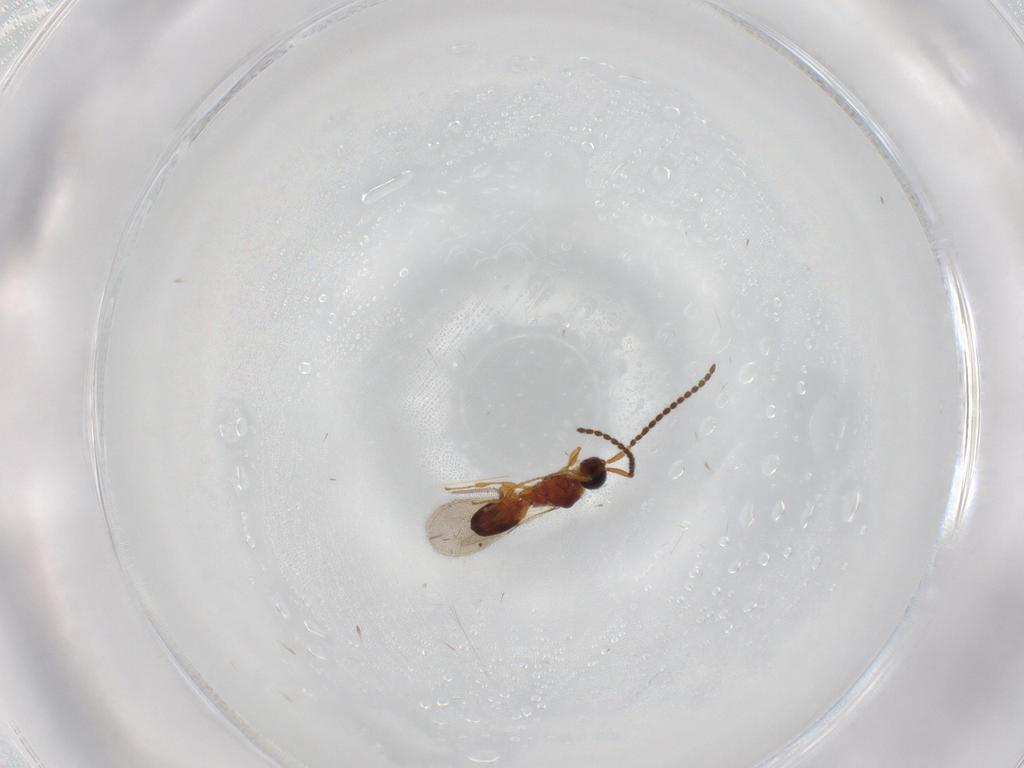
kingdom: Animalia
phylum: Arthropoda
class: Insecta
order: Hymenoptera
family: Diapriidae
